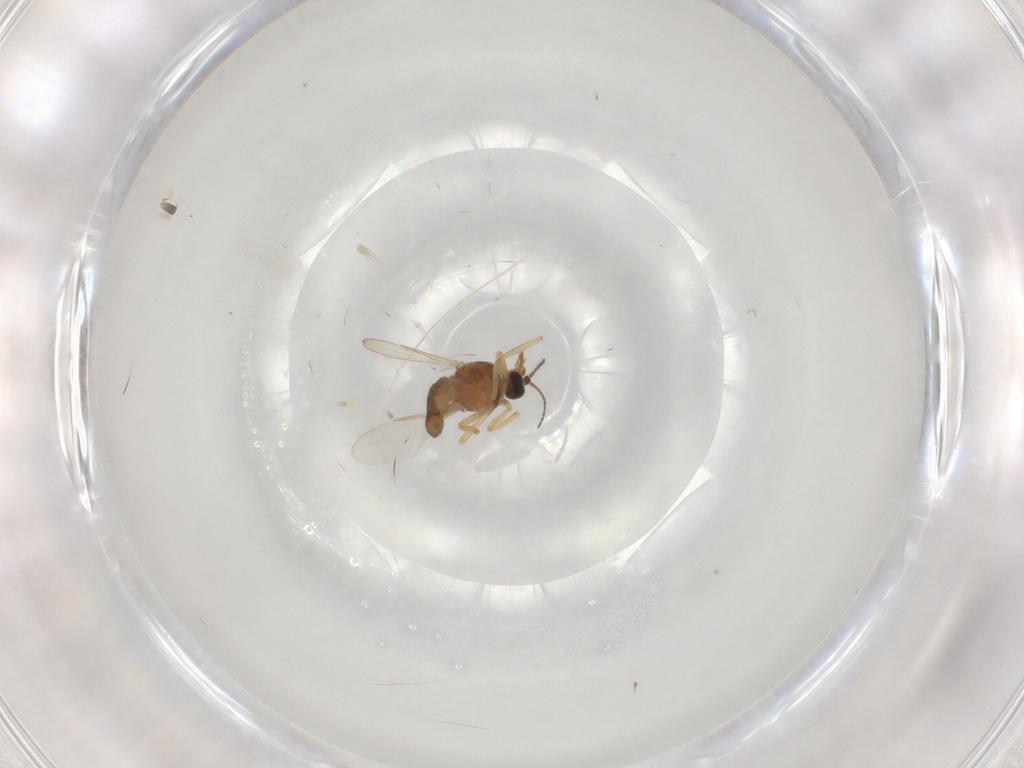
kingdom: Animalia
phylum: Arthropoda
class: Insecta
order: Diptera
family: Ceratopogonidae
